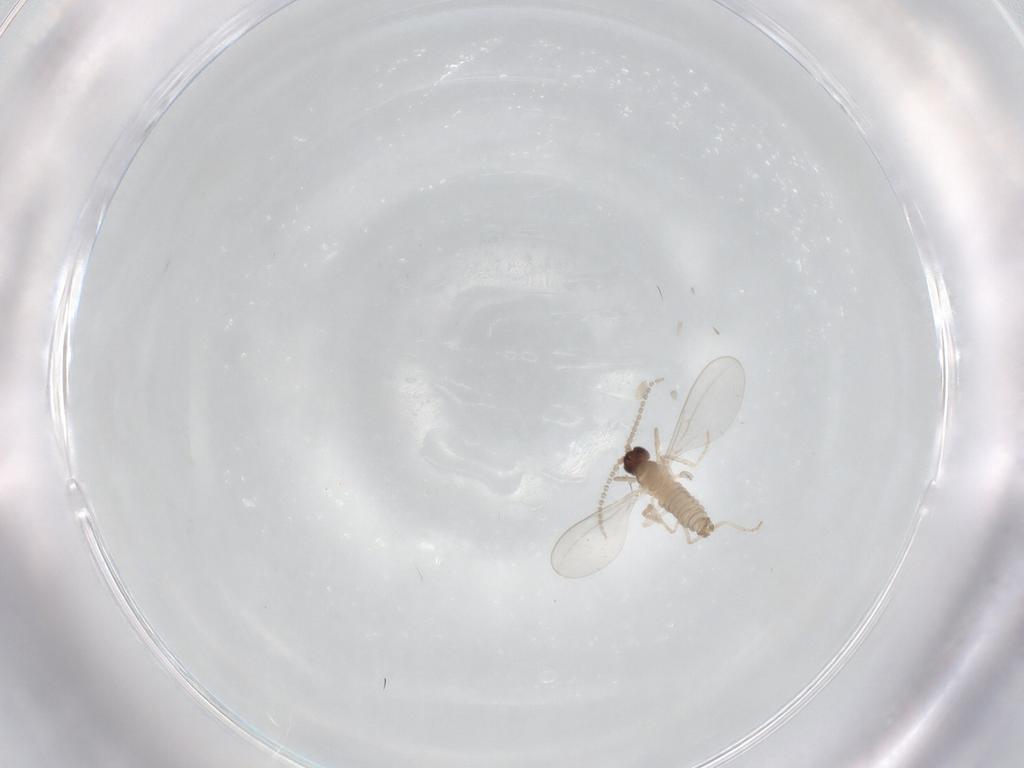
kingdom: Animalia
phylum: Arthropoda
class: Insecta
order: Diptera
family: Cecidomyiidae
